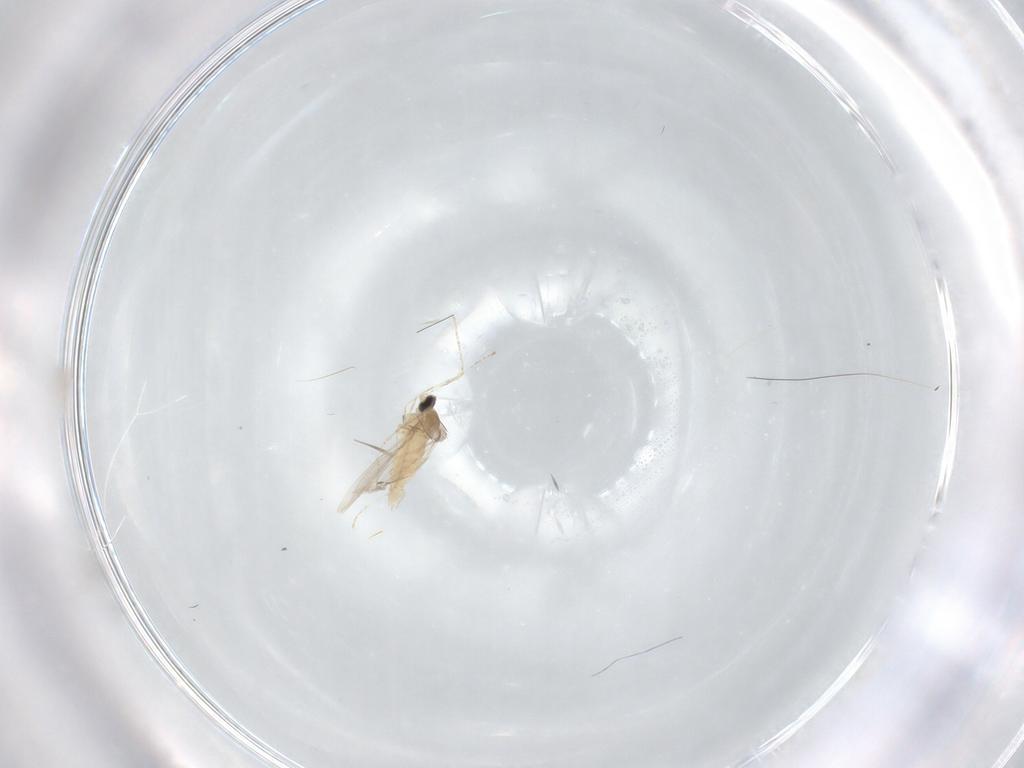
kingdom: Animalia
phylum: Arthropoda
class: Insecta
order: Diptera
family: Cecidomyiidae
